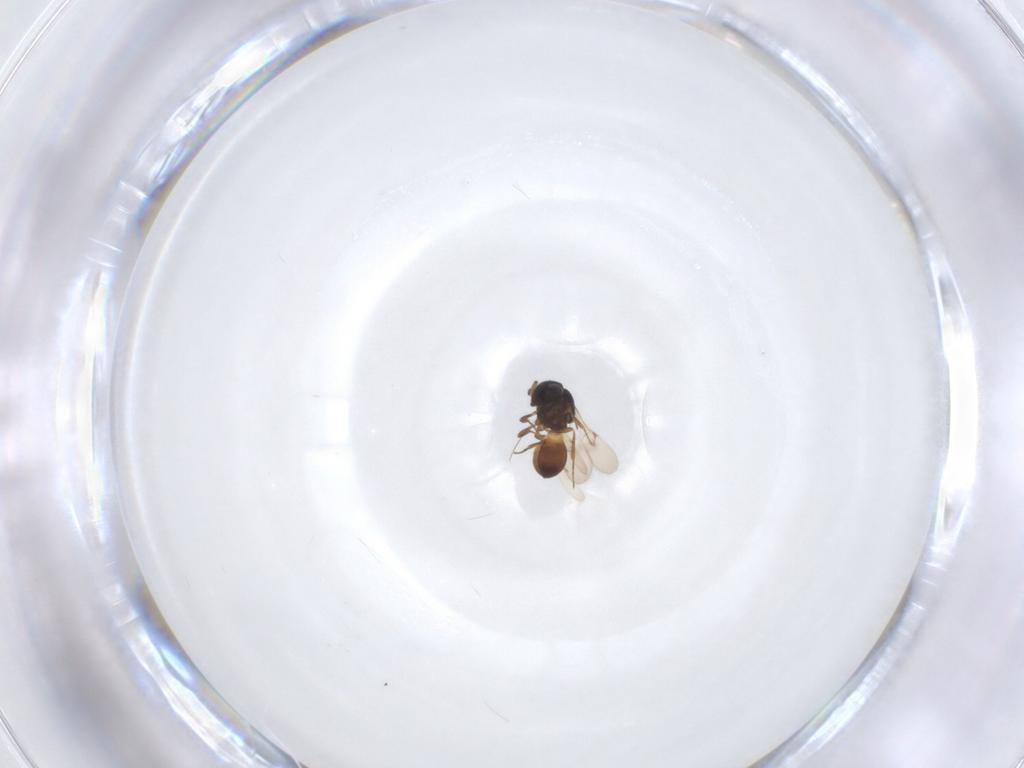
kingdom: Animalia
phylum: Arthropoda
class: Insecta
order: Hymenoptera
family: Scelionidae
